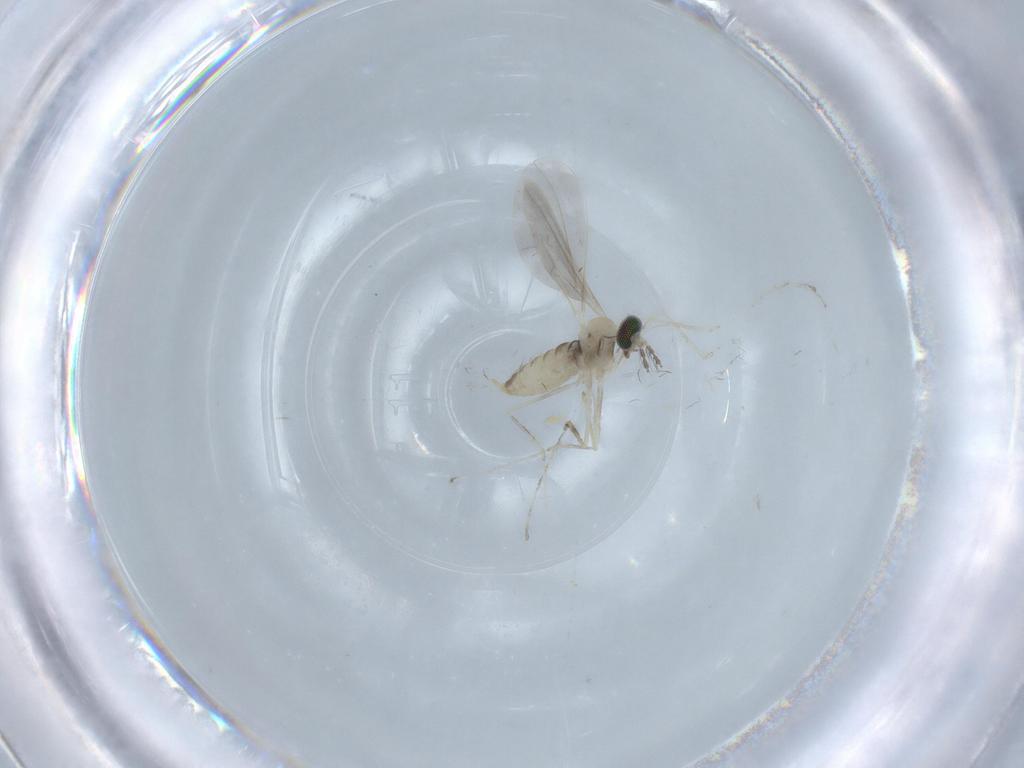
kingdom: Animalia
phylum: Arthropoda
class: Insecta
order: Diptera
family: Cecidomyiidae
